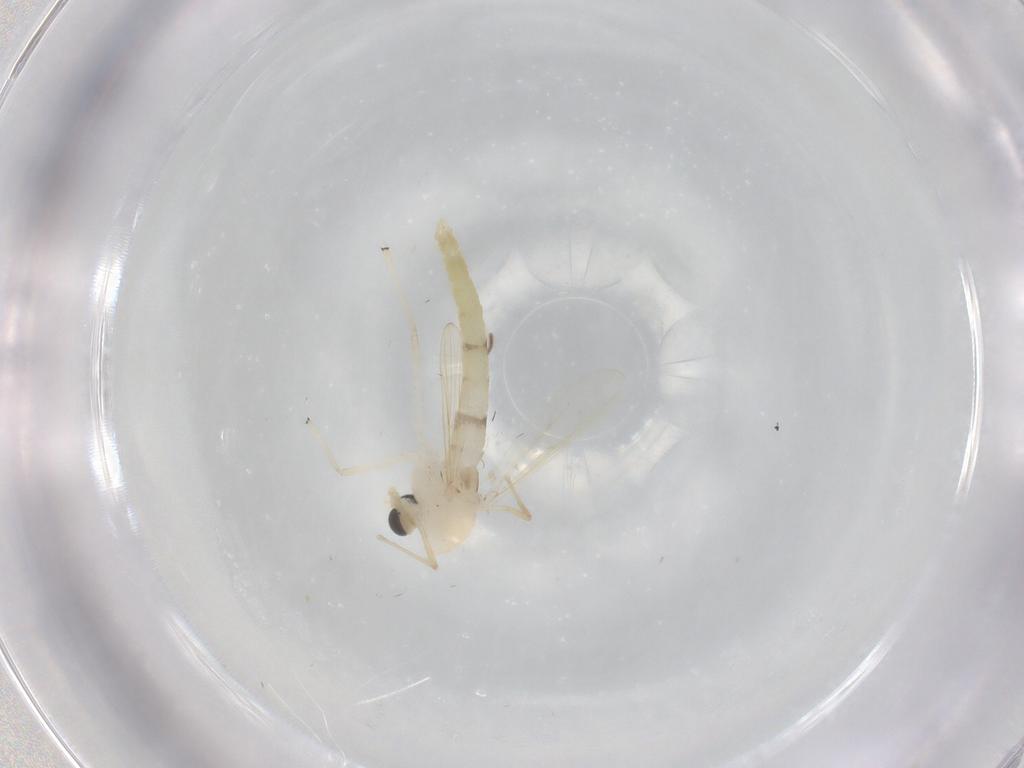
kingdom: Animalia
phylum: Arthropoda
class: Insecta
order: Diptera
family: Chironomidae
